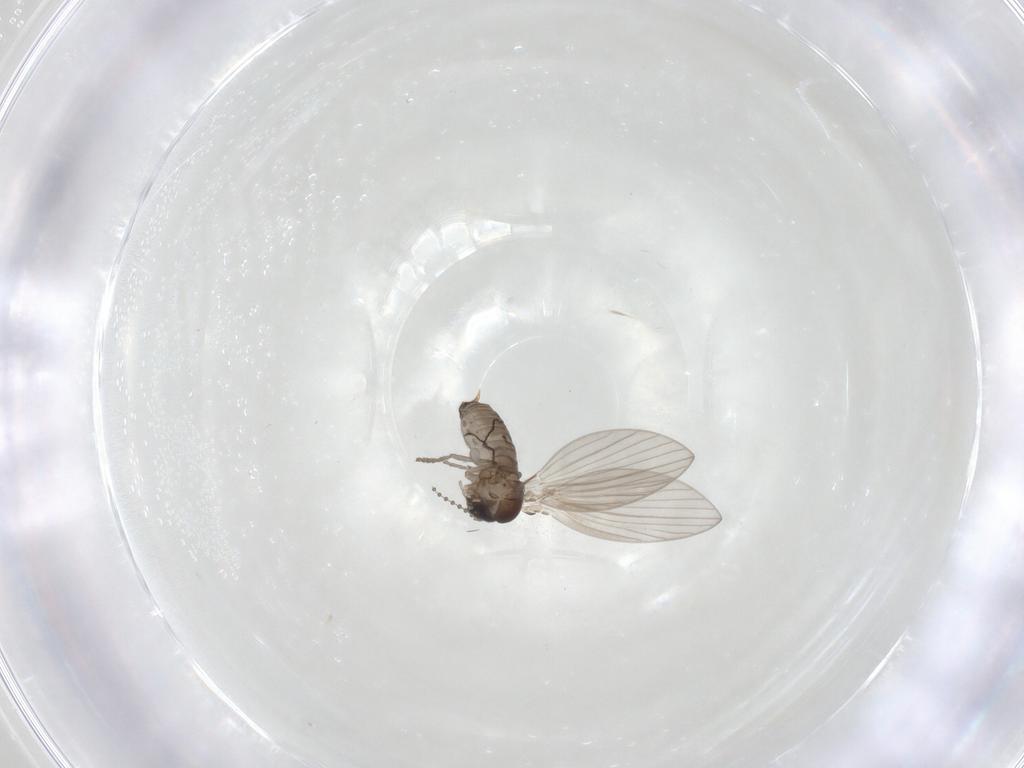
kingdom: Animalia
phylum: Arthropoda
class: Insecta
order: Diptera
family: Psychodidae
